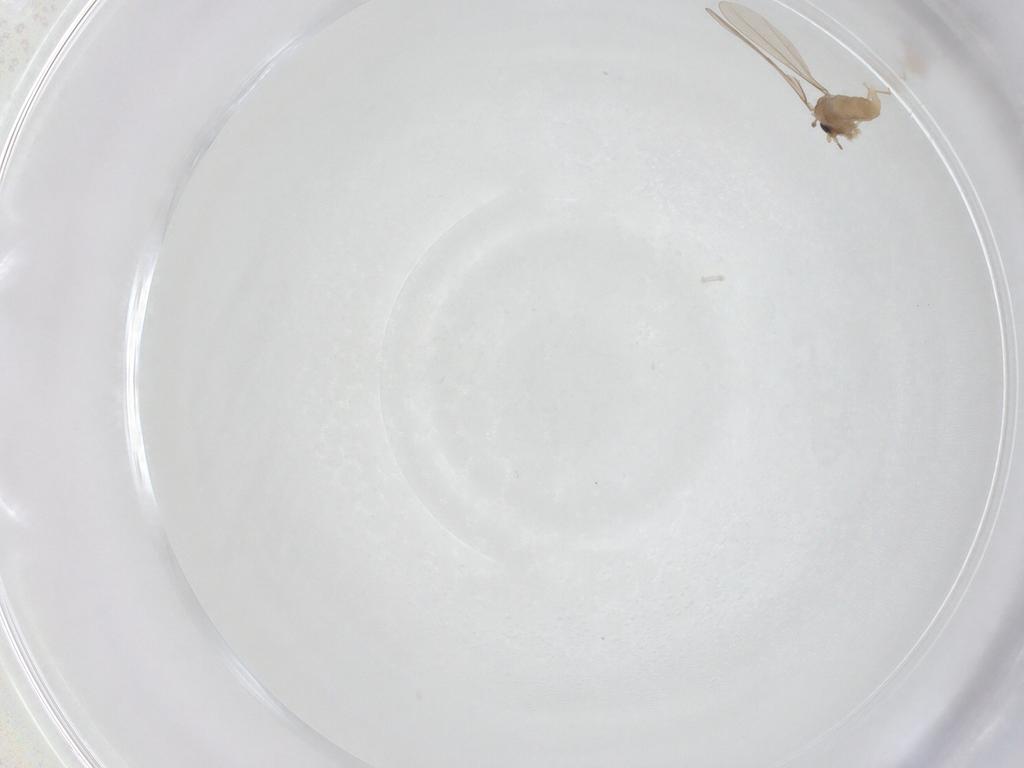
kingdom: Animalia
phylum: Arthropoda
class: Insecta
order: Diptera
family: Cecidomyiidae
